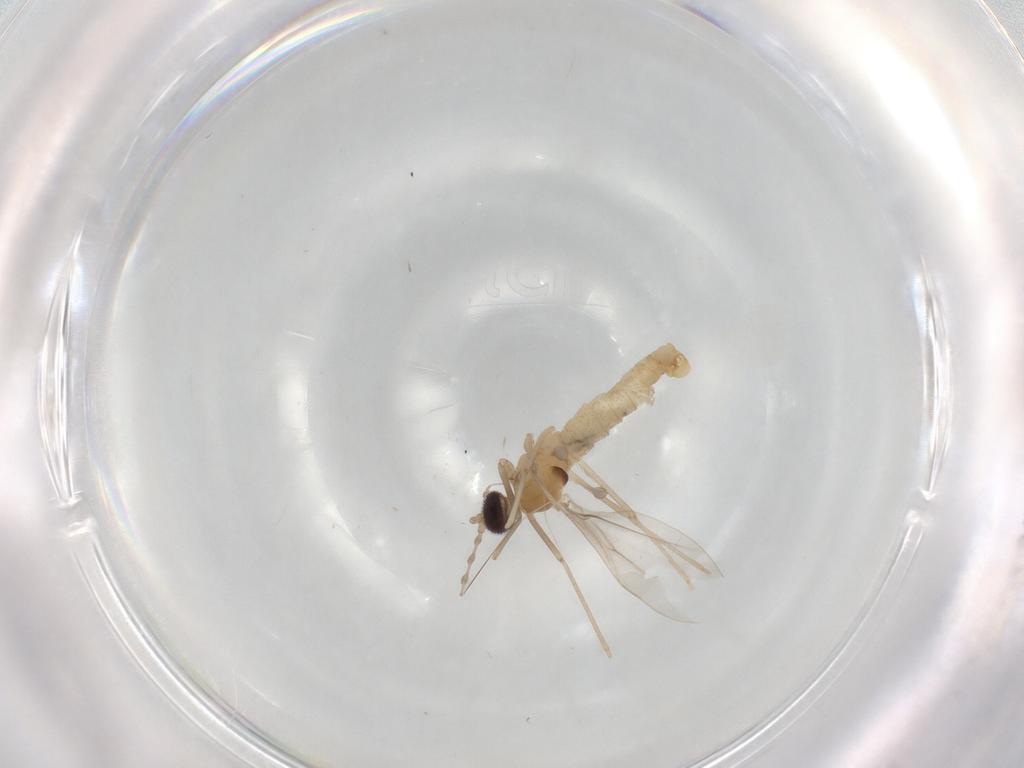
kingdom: Animalia
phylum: Arthropoda
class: Insecta
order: Diptera
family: Cecidomyiidae
